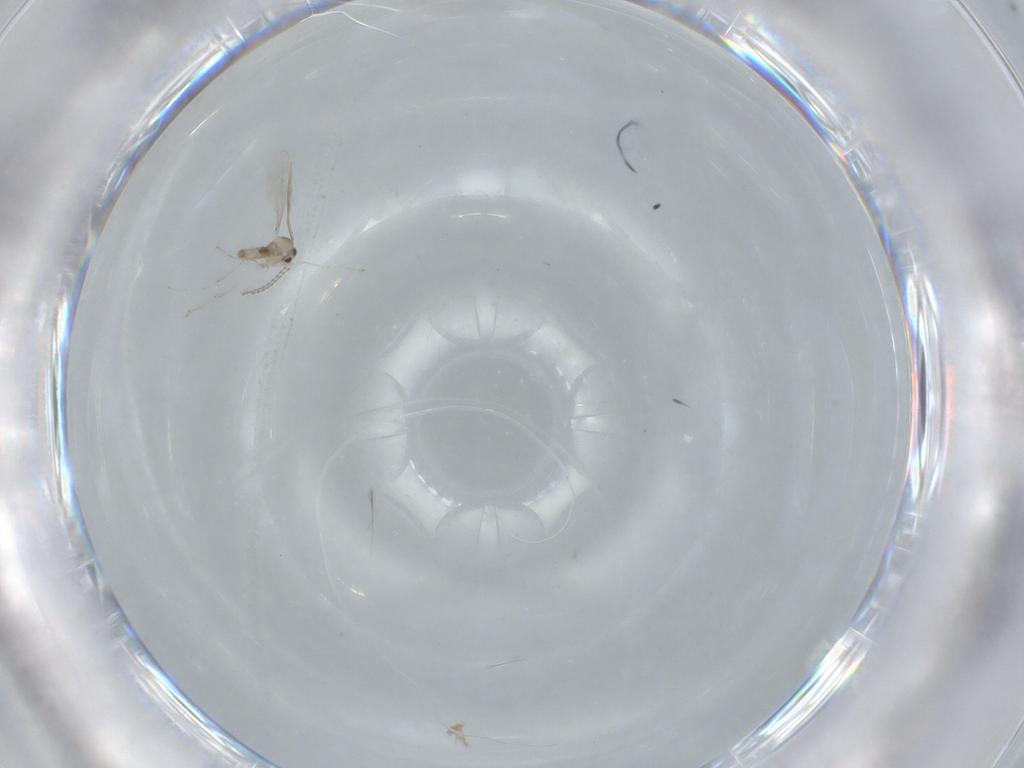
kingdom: Animalia
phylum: Arthropoda
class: Insecta
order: Diptera
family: Cecidomyiidae
